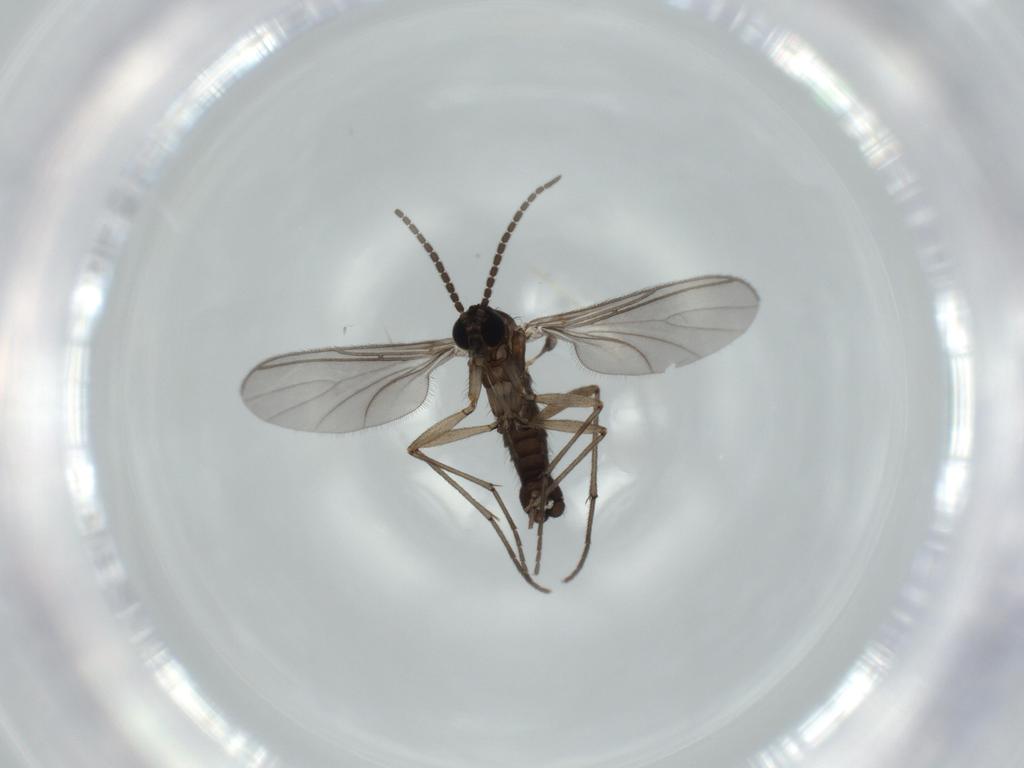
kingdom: Animalia
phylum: Arthropoda
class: Insecta
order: Diptera
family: Sciaridae
